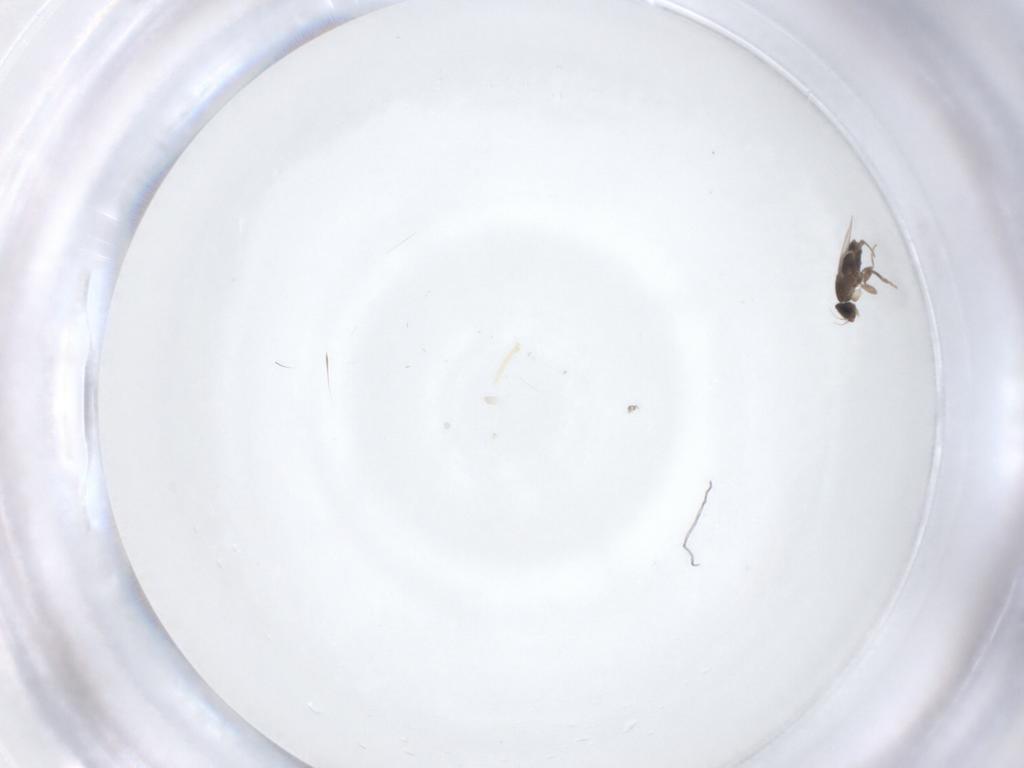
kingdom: Animalia
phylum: Arthropoda
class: Insecta
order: Diptera
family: Phoridae
